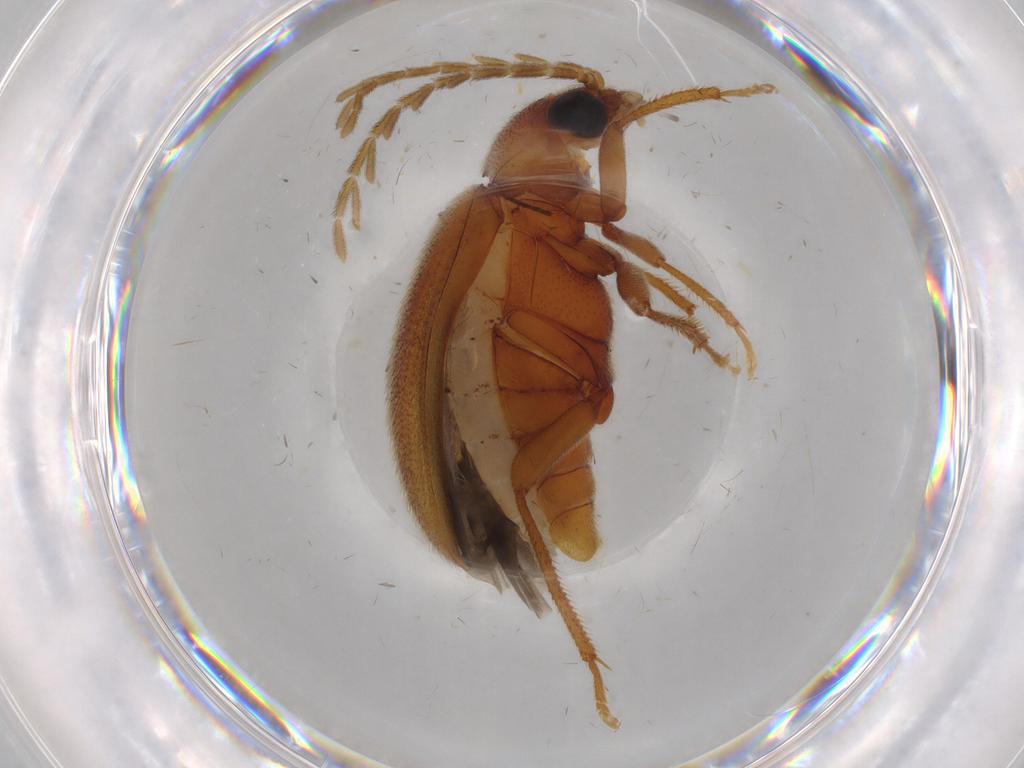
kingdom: Animalia
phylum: Arthropoda
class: Insecta
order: Coleoptera
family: Ptilodactylidae
